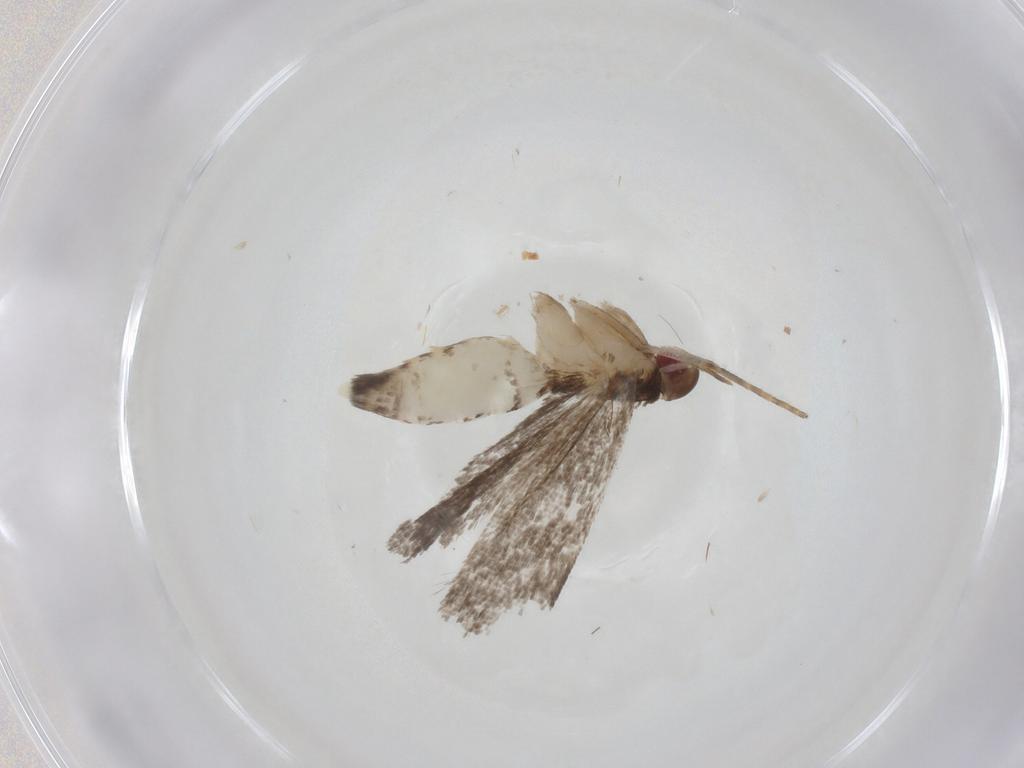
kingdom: Animalia
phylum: Arthropoda
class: Insecta
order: Lepidoptera
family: Gelechiidae
